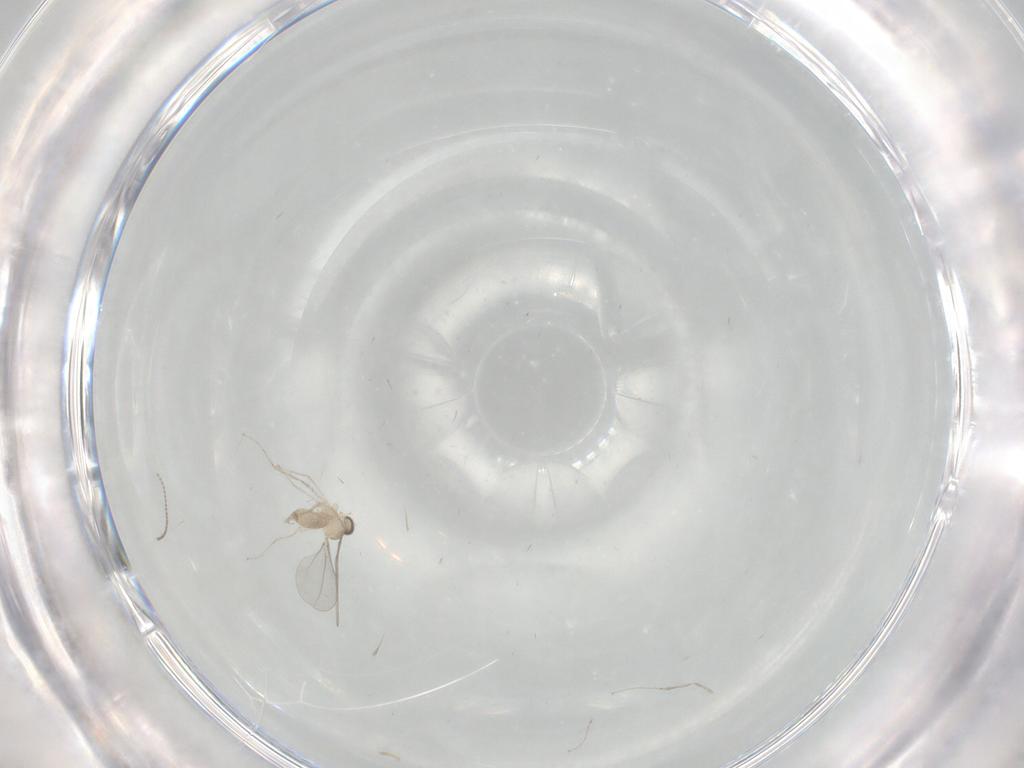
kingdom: Animalia
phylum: Arthropoda
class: Insecta
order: Diptera
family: Cecidomyiidae
